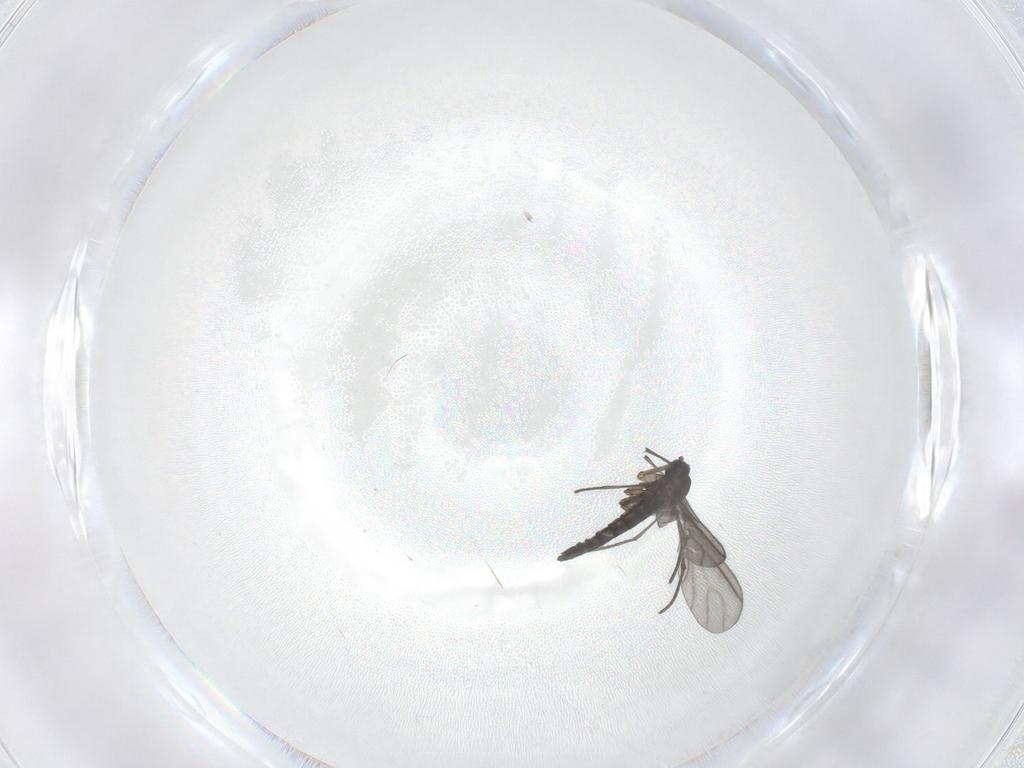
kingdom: Animalia
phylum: Arthropoda
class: Insecta
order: Diptera
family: Sciaridae
